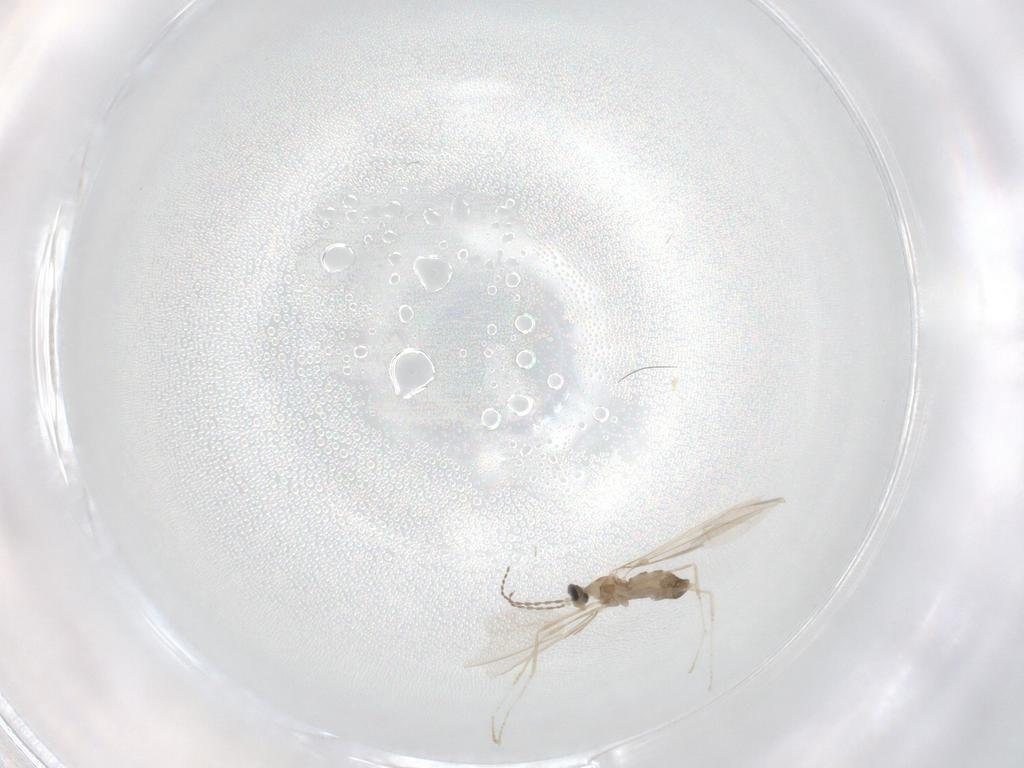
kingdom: Animalia
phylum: Arthropoda
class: Insecta
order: Diptera
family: Cecidomyiidae
